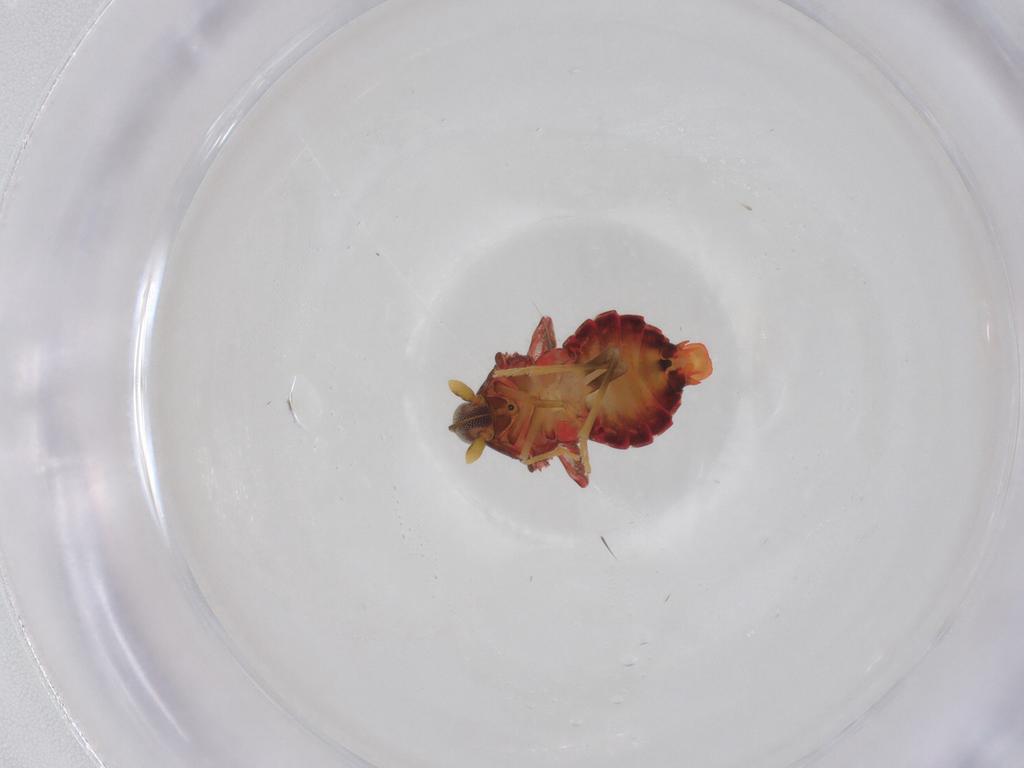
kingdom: Animalia
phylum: Arthropoda
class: Insecta
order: Hemiptera
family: Derbidae
